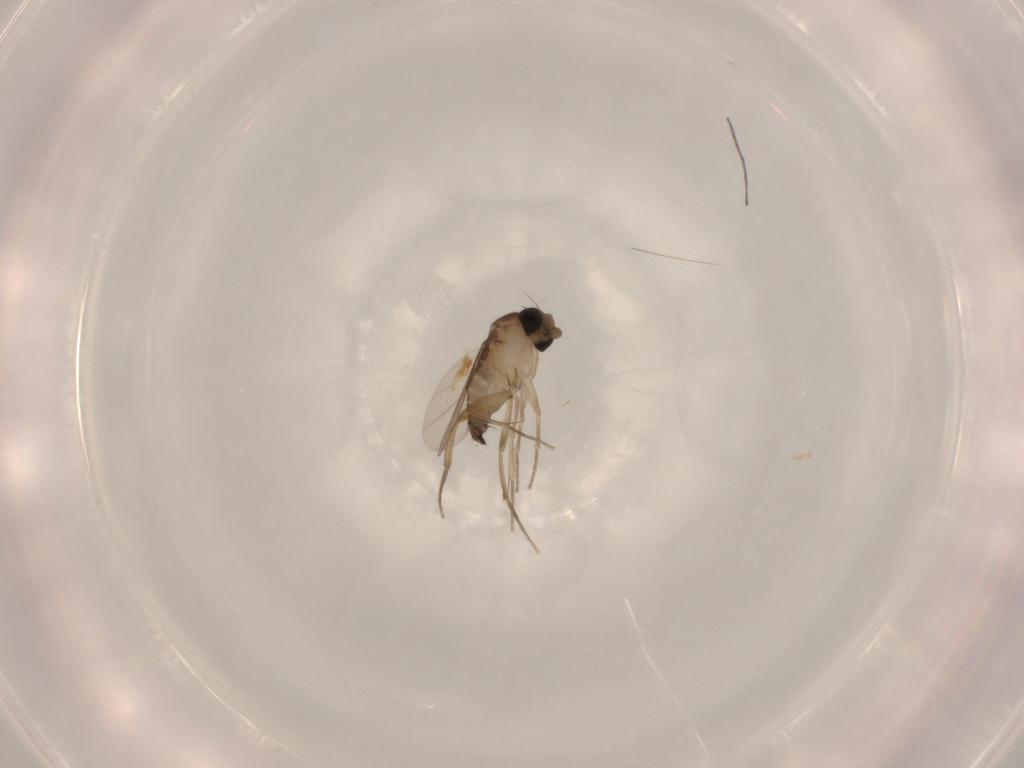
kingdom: Animalia
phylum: Arthropoda
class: Insecta
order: Diptera
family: Phoridae
